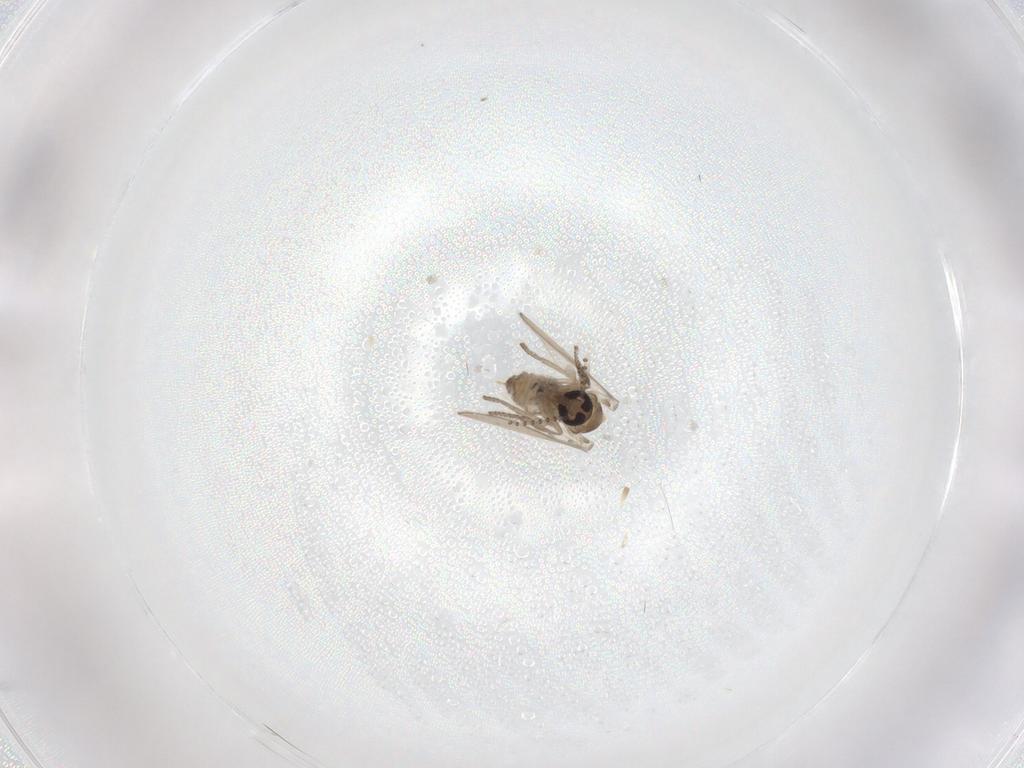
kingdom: Animalia
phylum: Arthropoda
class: Insecta
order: Diptera
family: Psychodidae
